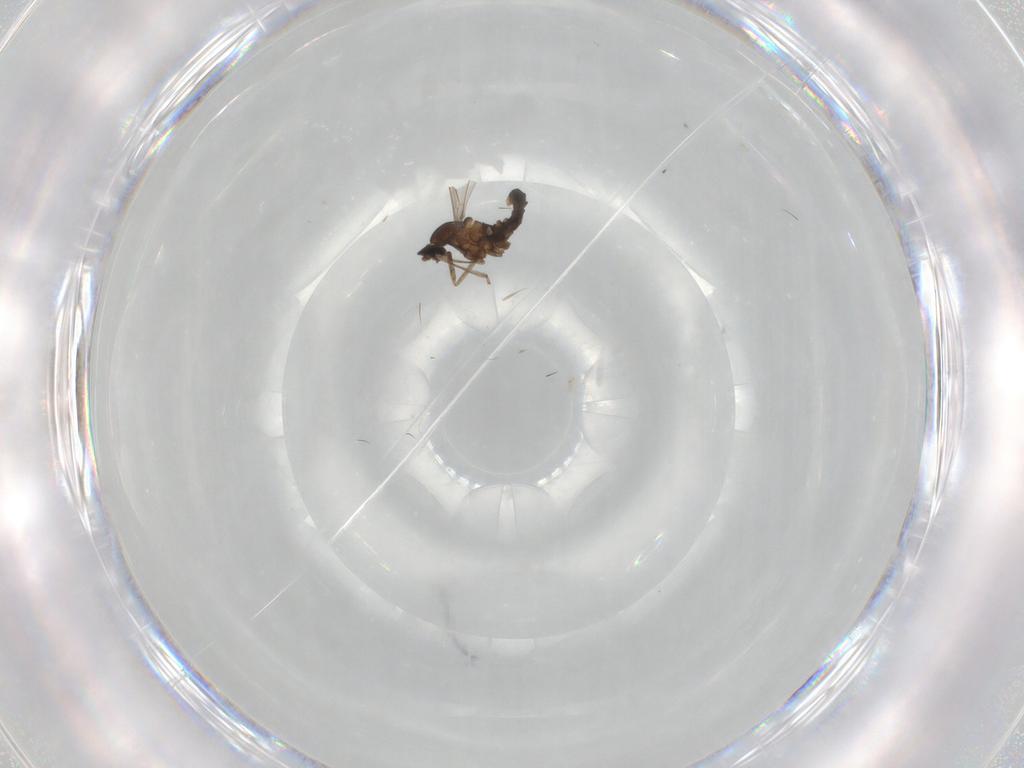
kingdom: Animalia
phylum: Arthropoda
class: Insecta
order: Diptera
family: Cecidomyiidae
